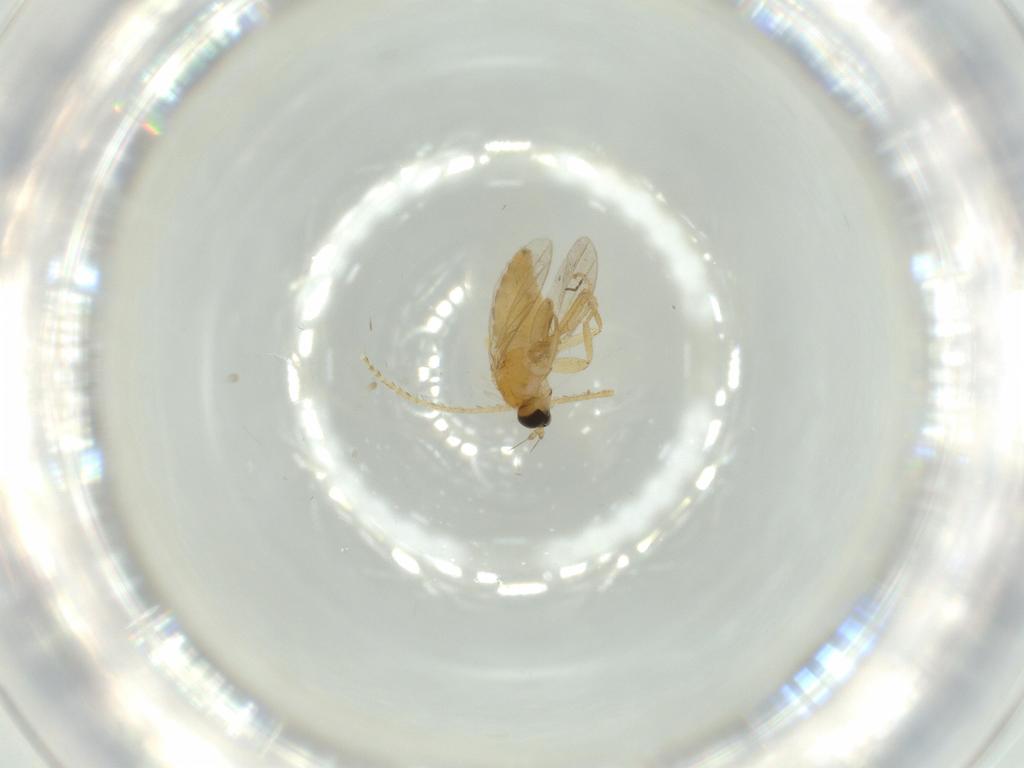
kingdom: Animalia
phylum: Arthropoda
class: Insecta
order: Diptera
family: Hybotidae
